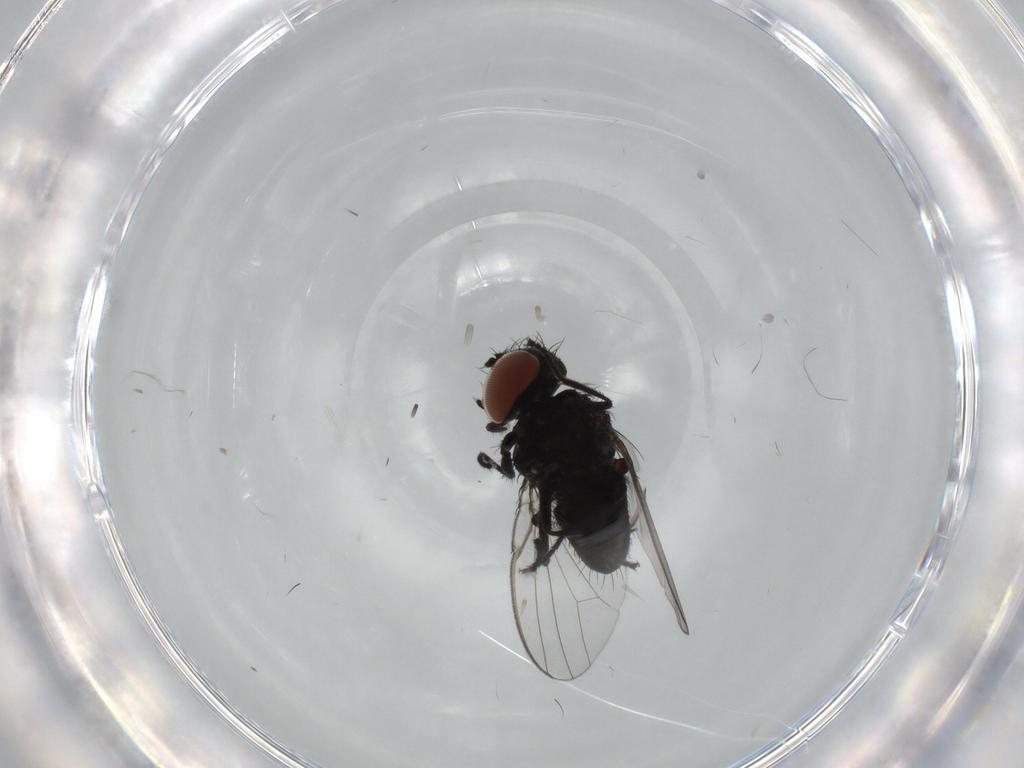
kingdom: Animalia
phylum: Arthropoda
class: Insecta
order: Diptera
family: Milichiidae
